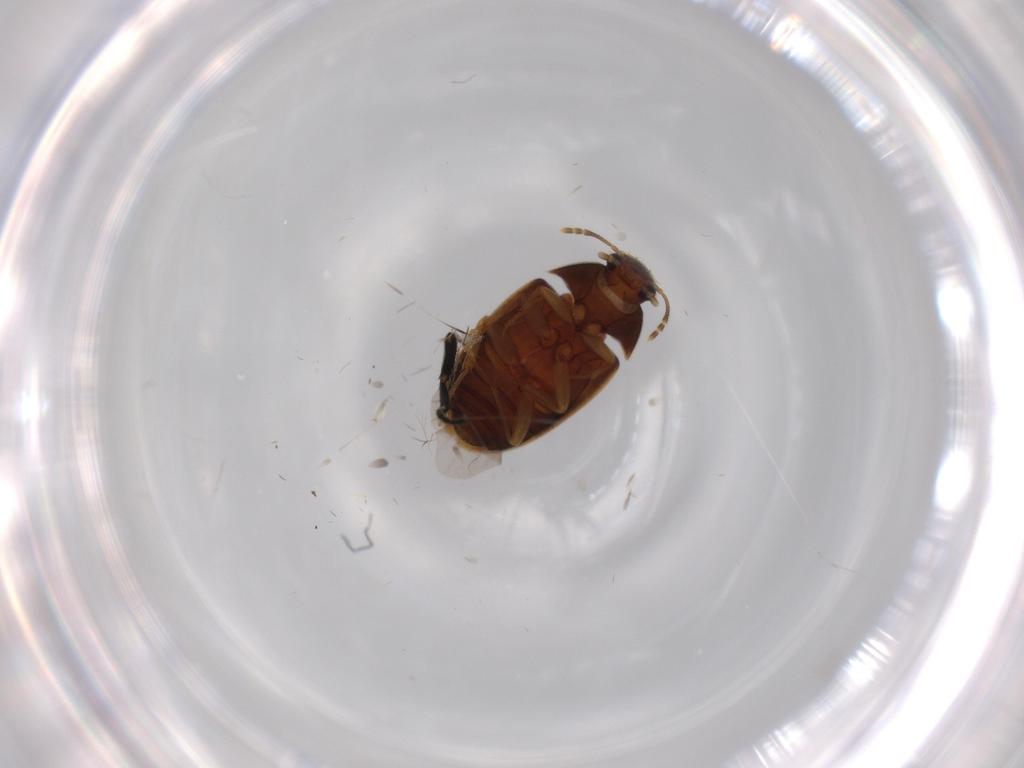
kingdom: Animalia
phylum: Arthropoda
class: Insecta
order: Coleoptera
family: Mycetophagidae
